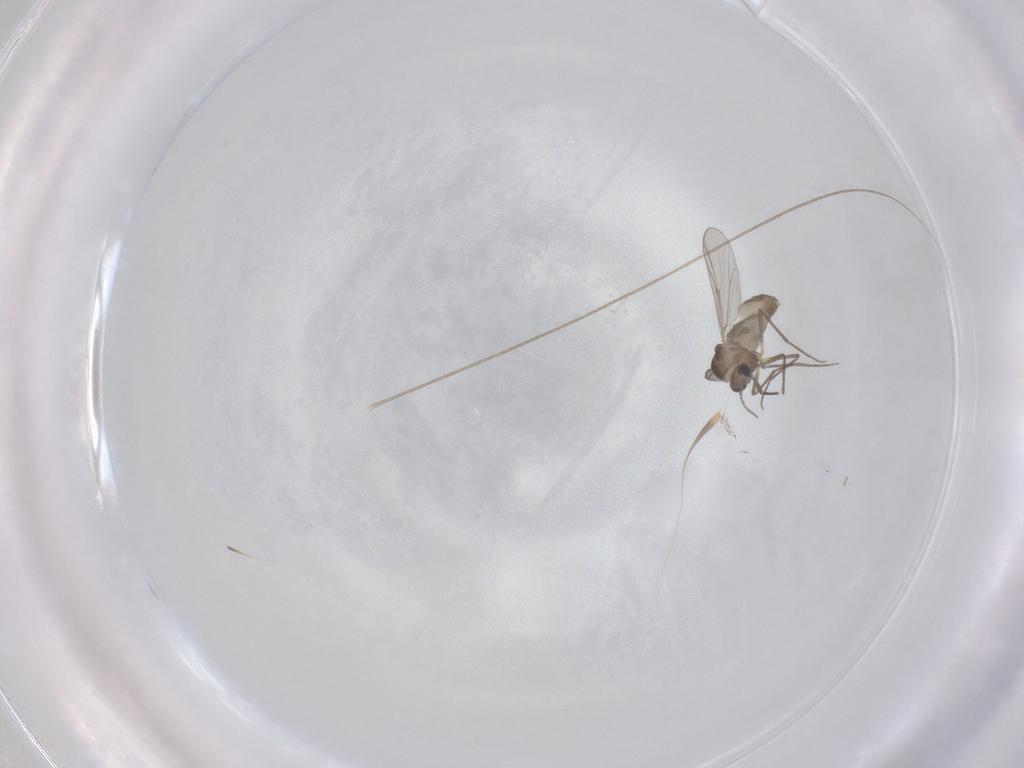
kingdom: Animalia
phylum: Arthropoda
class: Insecta
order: Diptera
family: Chironomidae
